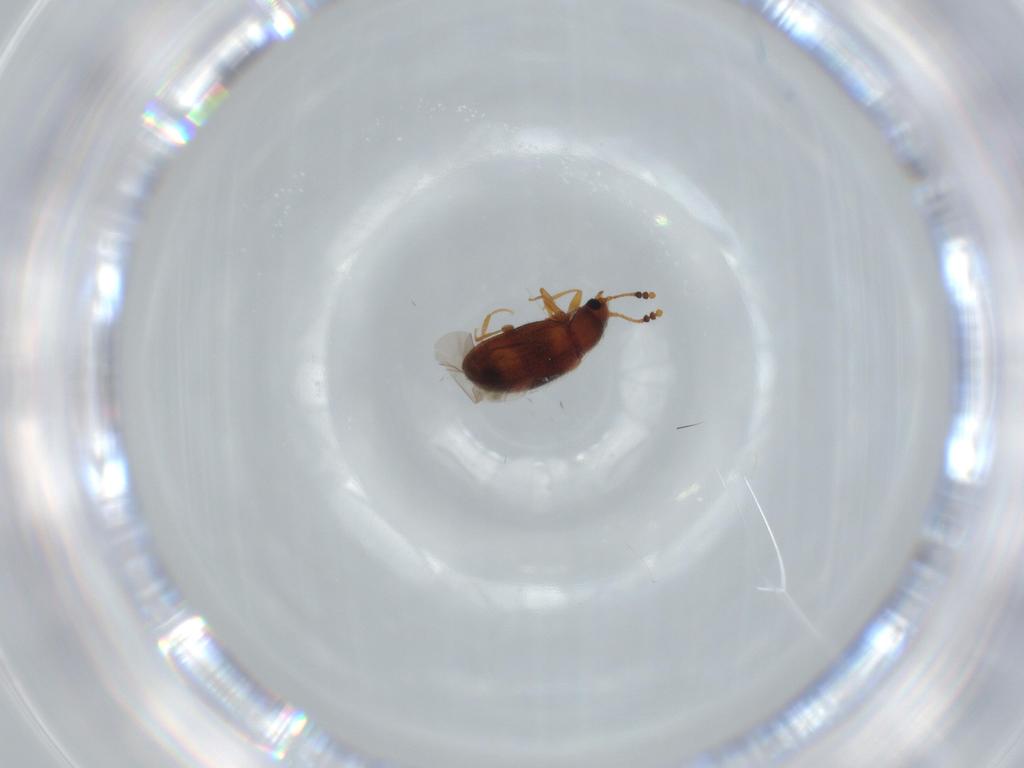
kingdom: Animalia
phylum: Arthropoda
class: Insecta
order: Coleoptera
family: Erotylidae
